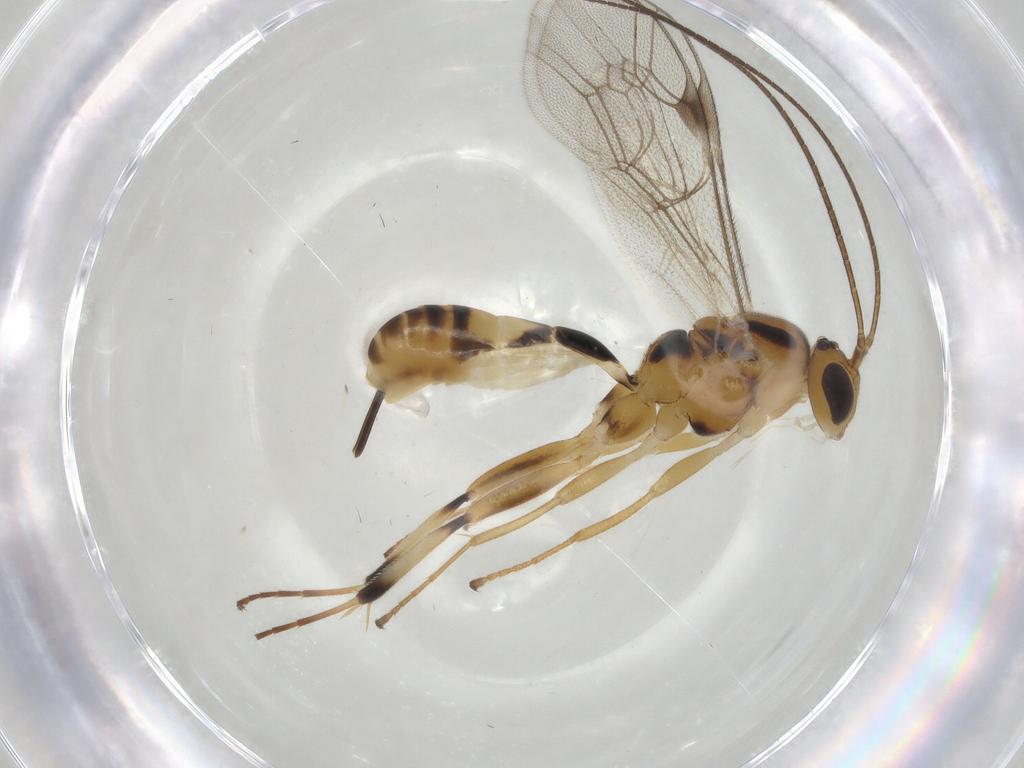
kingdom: Animalia
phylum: Arthropoda
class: Insecta
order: Hymenoptera
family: Ichneumonidae
